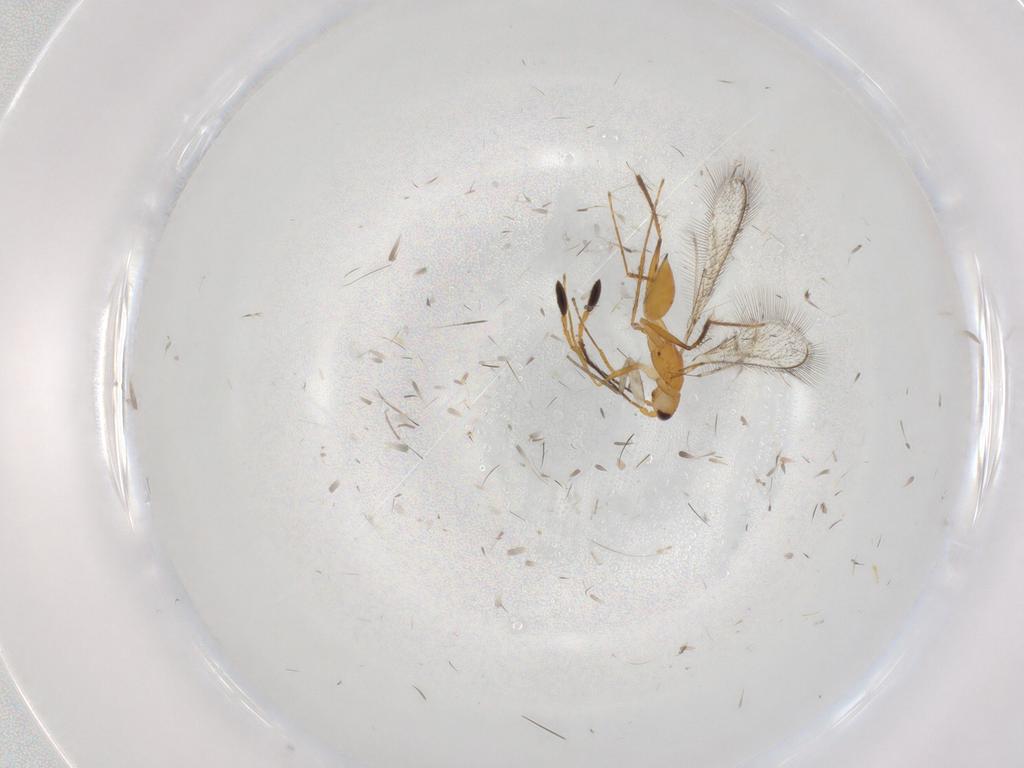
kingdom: Animalia
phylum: Arthropoda
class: Insecta
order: Hymenoptera
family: Mymaridae
